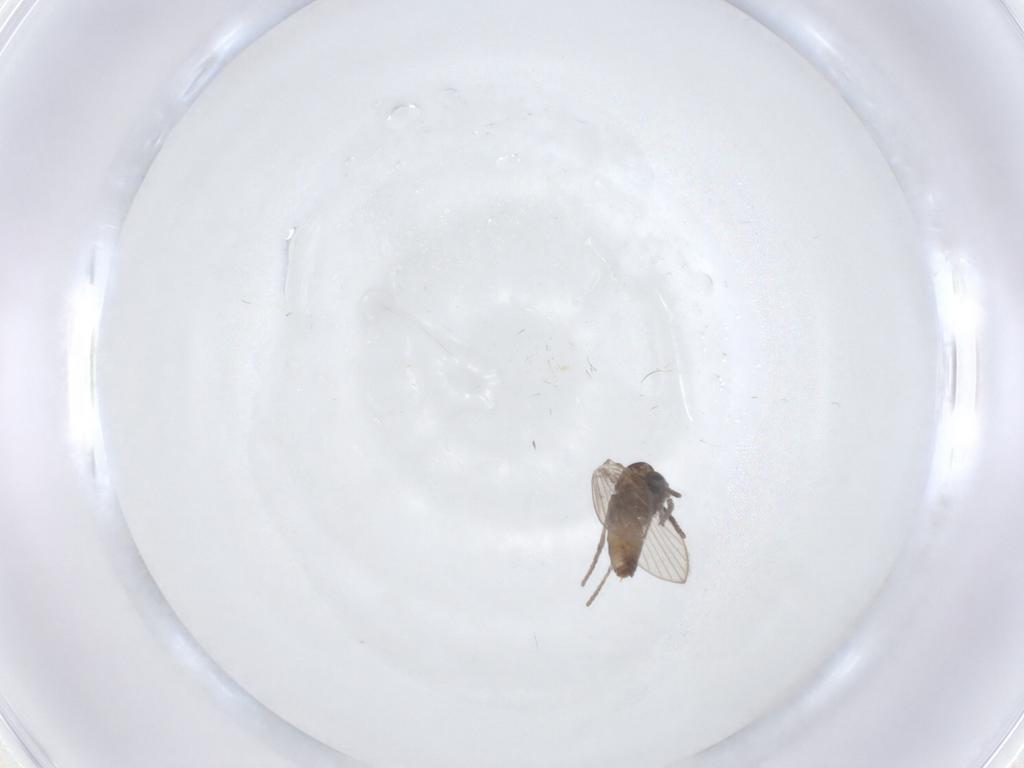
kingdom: Animalia
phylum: Arthropoda
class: Insecta
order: Diptera
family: Psychodidae
